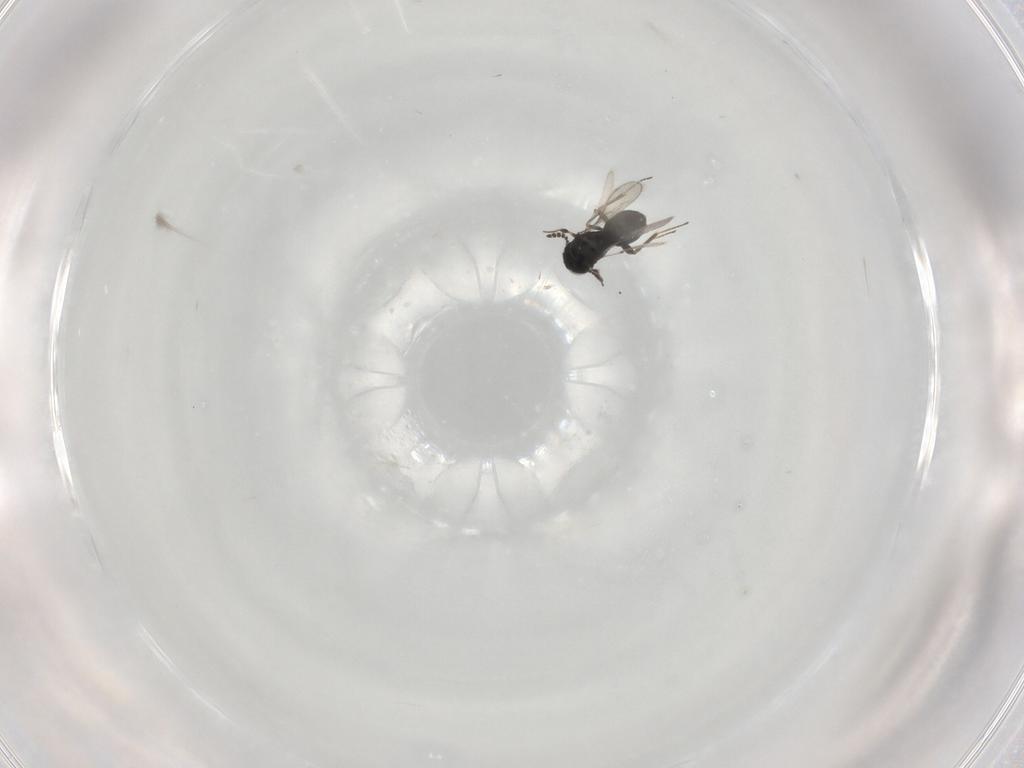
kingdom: Animalia
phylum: Arthropoda
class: Insecta
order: Hymenoptera
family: Scelionidae
